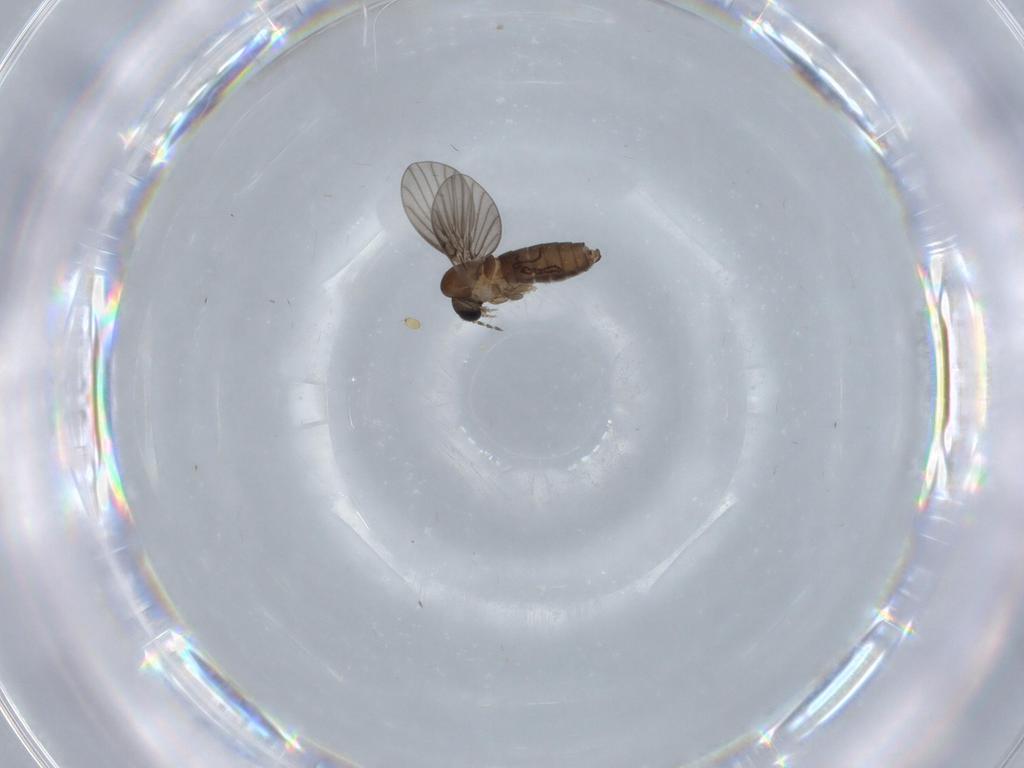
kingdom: Animalia
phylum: Arthropoda
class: Insecta
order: Diptera
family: Psychodidae
